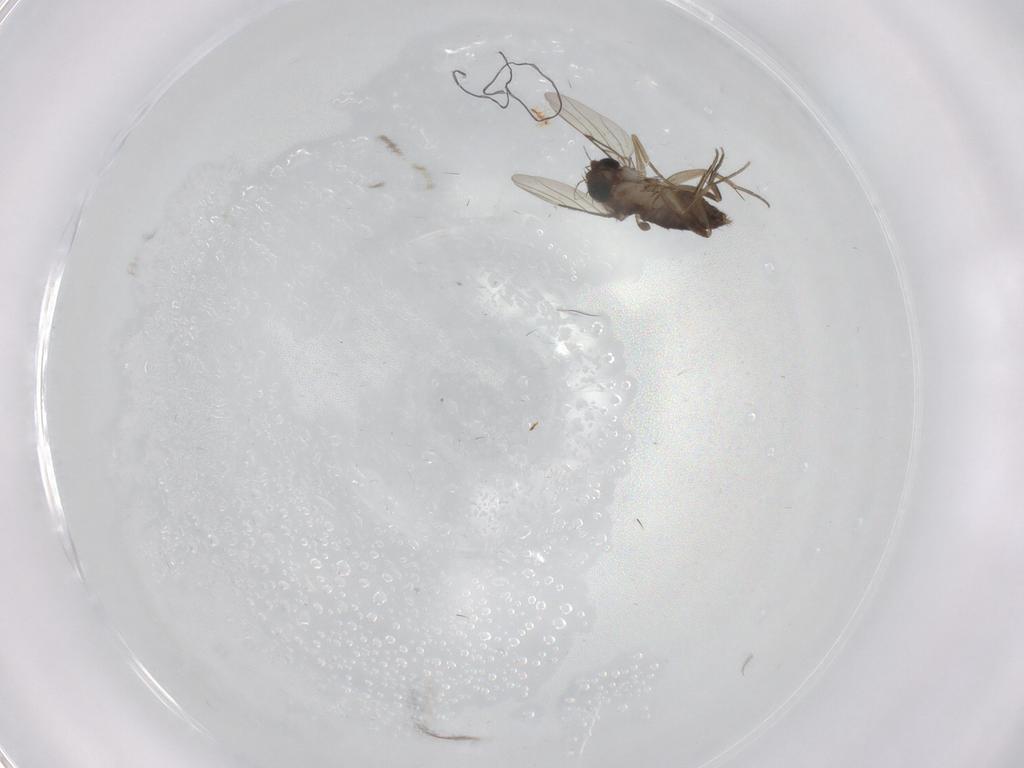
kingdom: Animalia
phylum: Arthropoda
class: Insecta
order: Diptera
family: Phoridae
